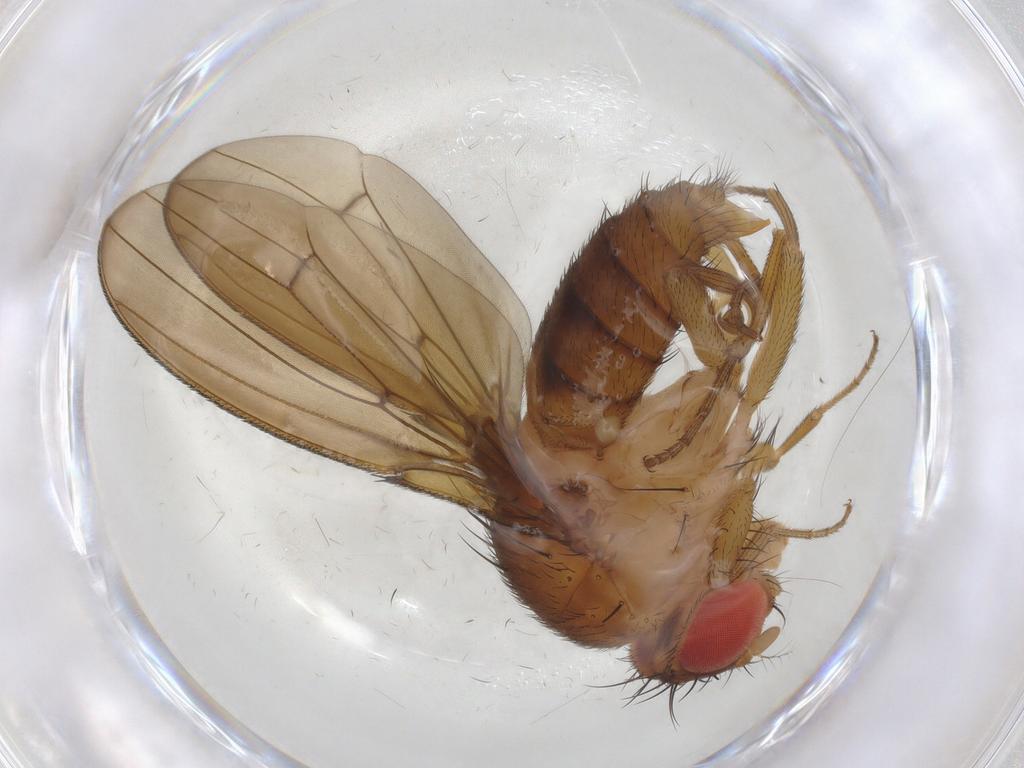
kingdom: Animalia
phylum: Arthropoda
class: Insecta
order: Diptera
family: Drosophilidae
